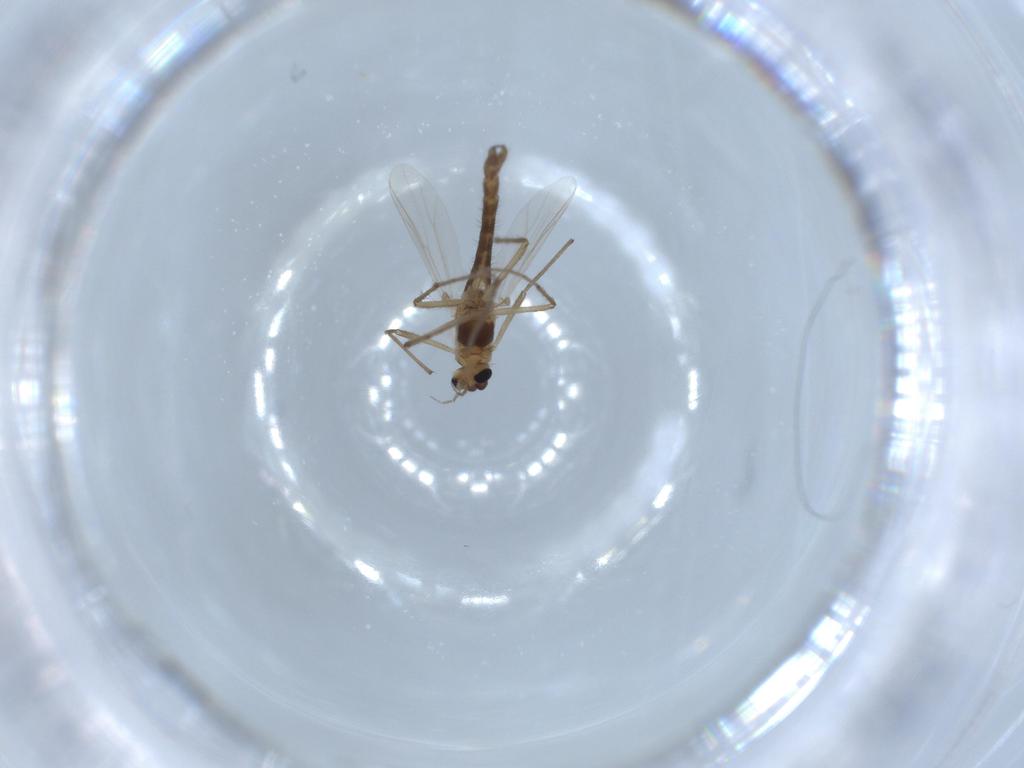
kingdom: Animalia
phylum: Arthropoda
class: Insecta
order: Diptera
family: Chironomidae
